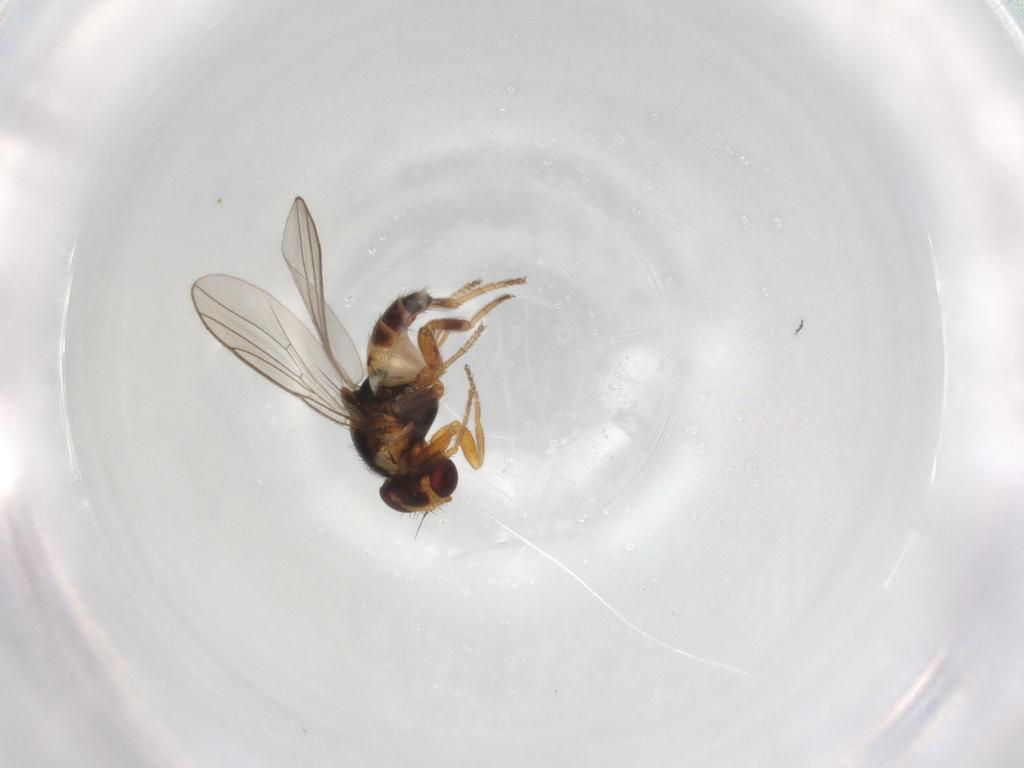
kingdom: Animalia
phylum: Arthropoda
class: Insecta
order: Diptera
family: Chloropidae
